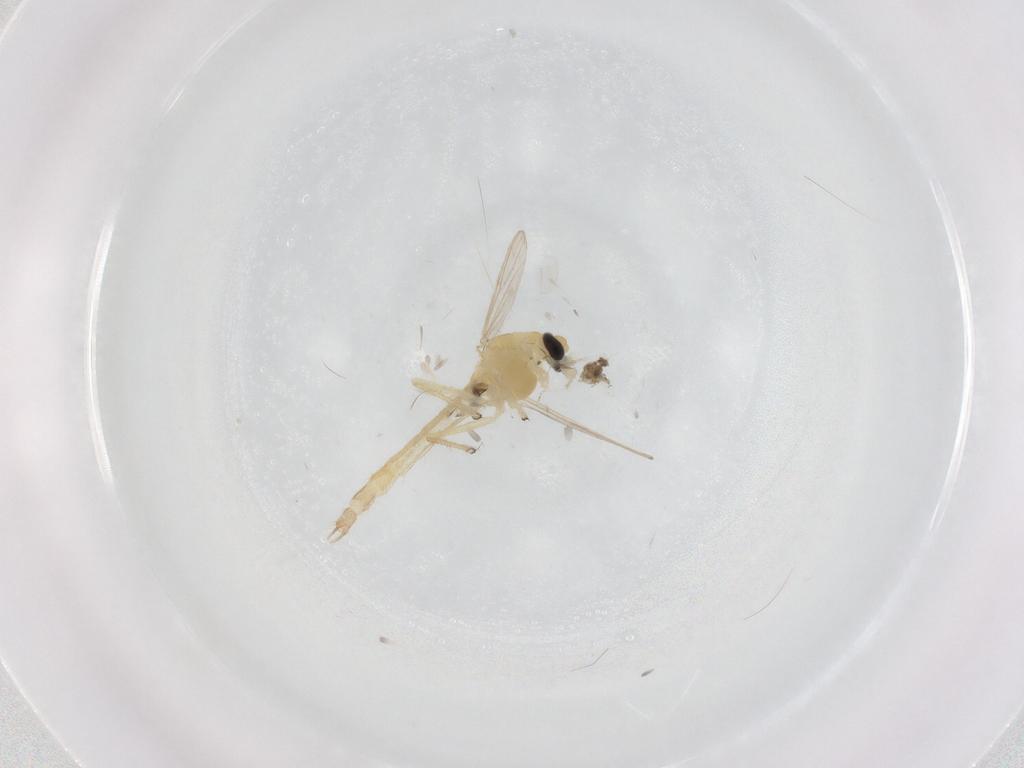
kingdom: Animalia
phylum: Arthropoda
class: Insecta
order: Diptera
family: Chironomidae
